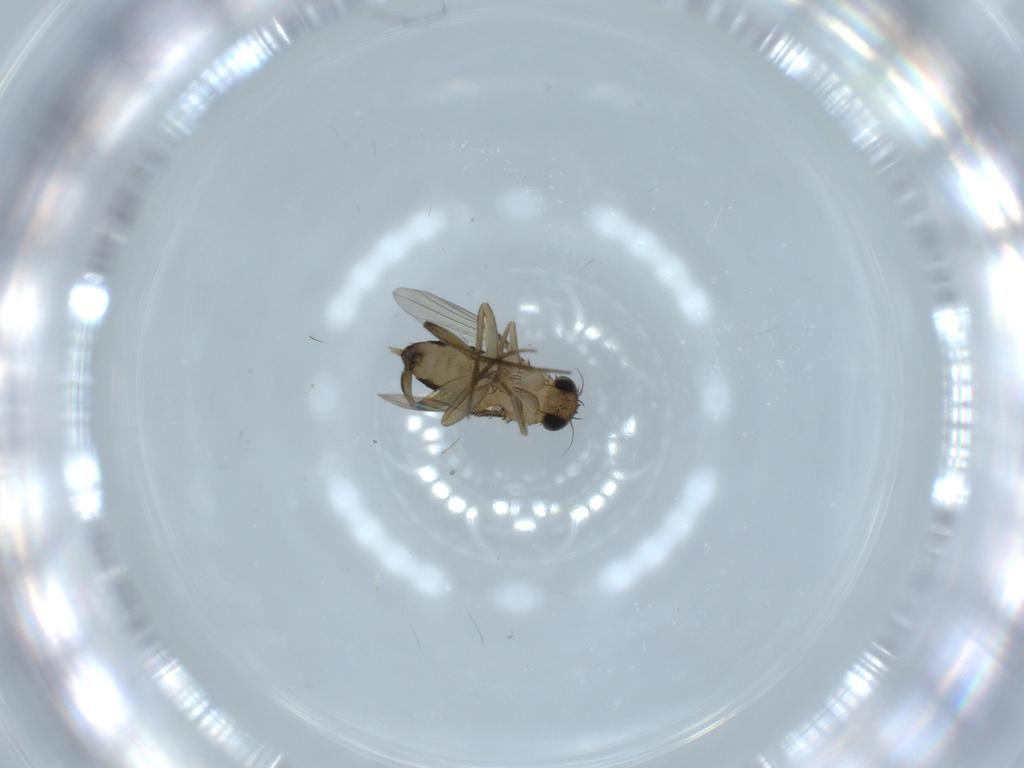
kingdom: Animalia
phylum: Arthropoda
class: Insecta
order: Diptera
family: Phoridae
